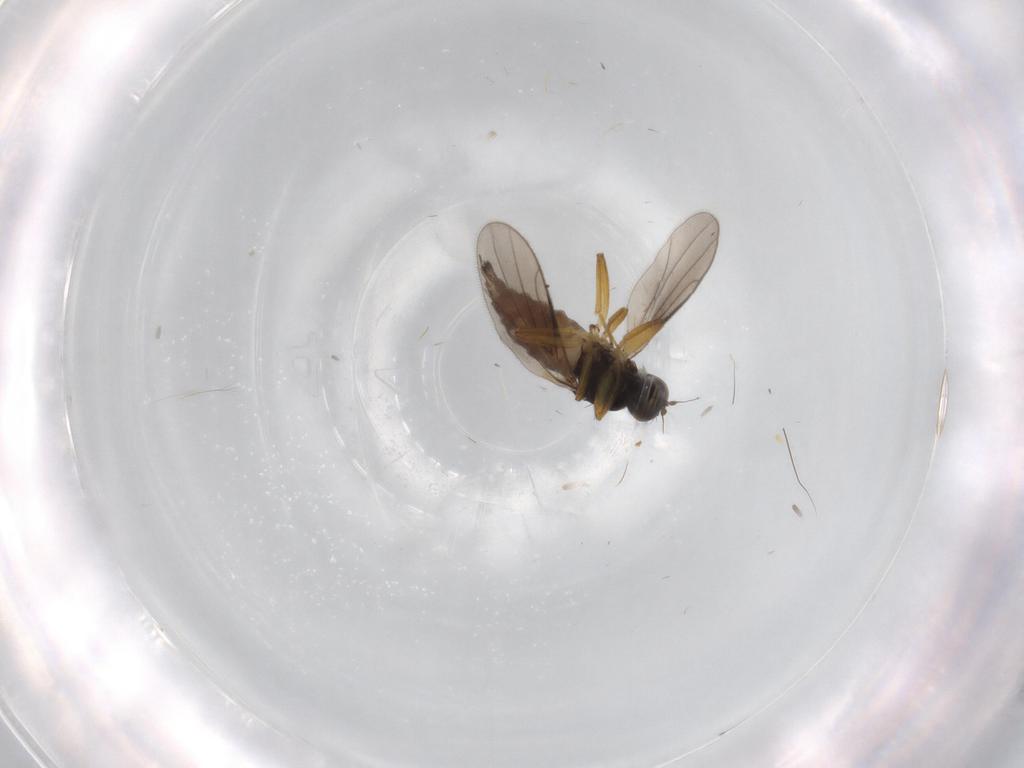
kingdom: Animalia
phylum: Arthropoda
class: Insecta
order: Diptera
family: Hybotidae
